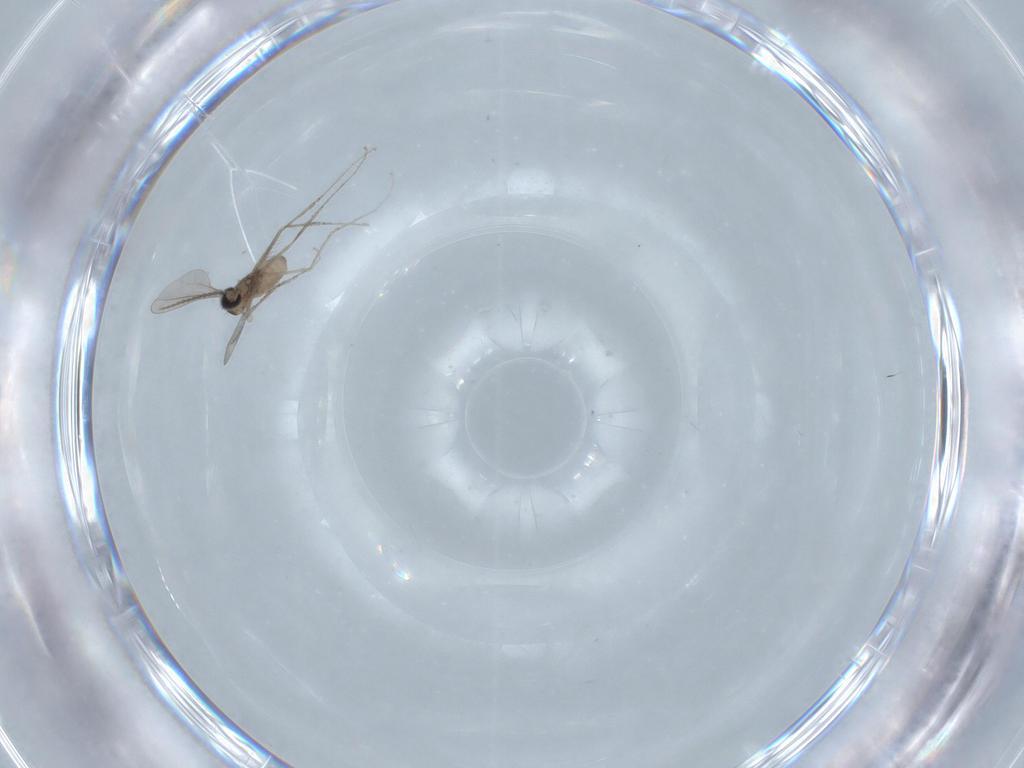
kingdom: Animalia
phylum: Arthropoda
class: Insecta
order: Diptera
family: Cecidomyiidae
